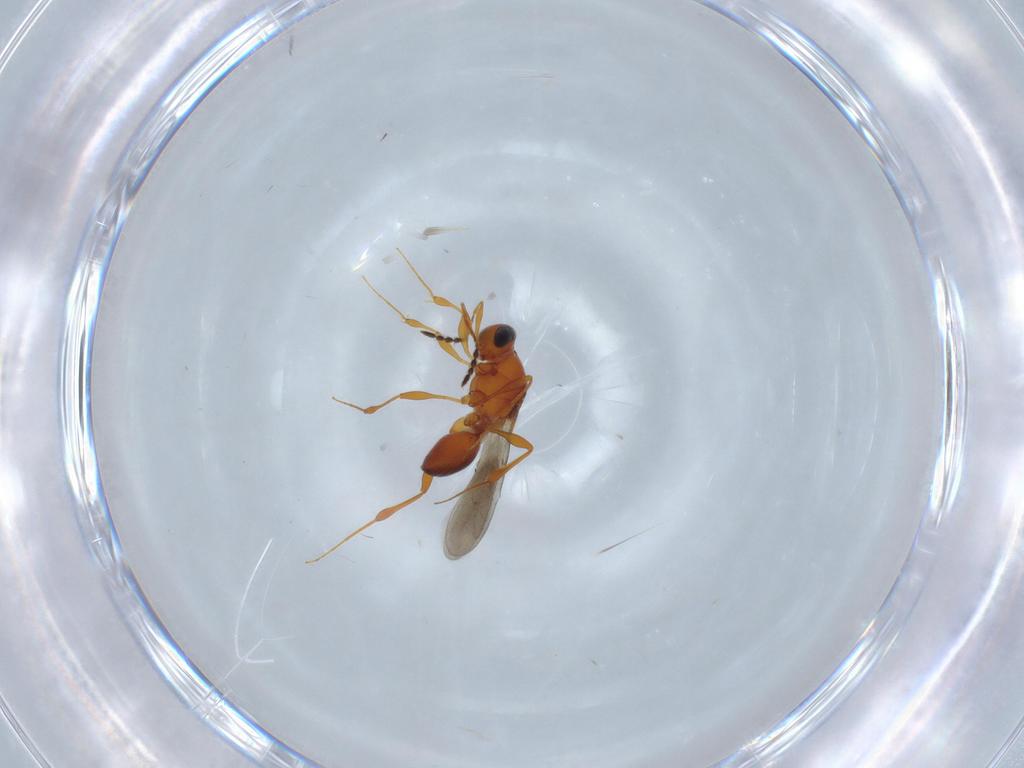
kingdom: Animalia
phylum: Arthropoda
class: Insecta
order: Hymenoptera
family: Platygastridae
